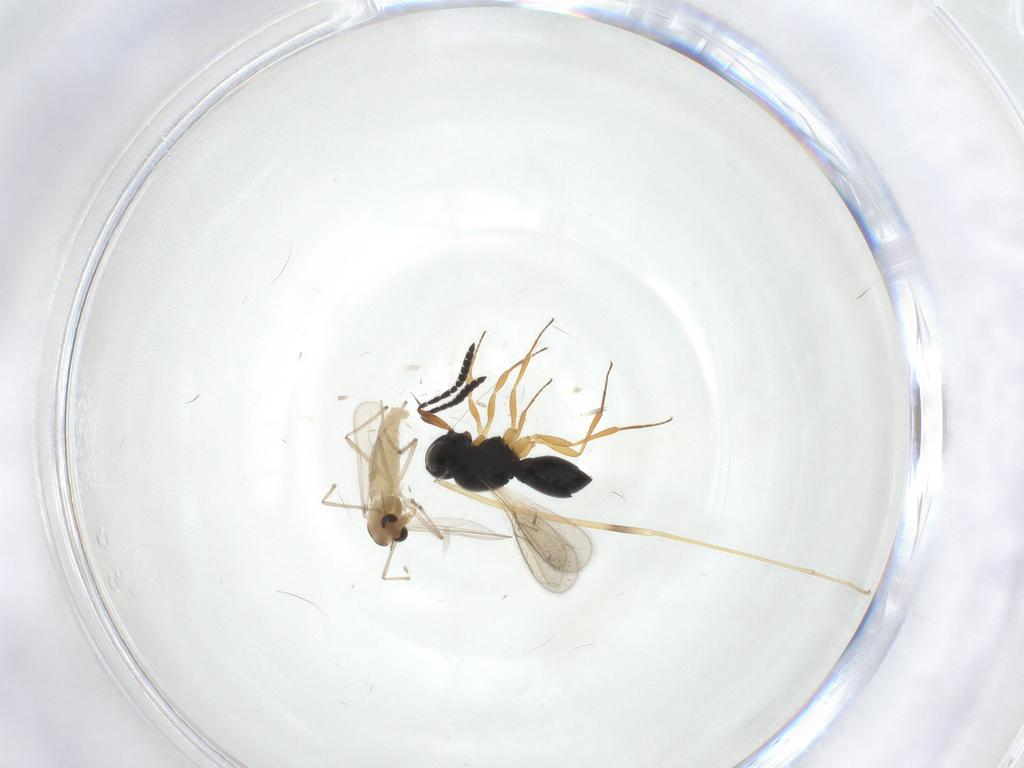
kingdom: Animalia
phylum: Arthropoda
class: Insecta
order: Diptera
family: Chironomidae
